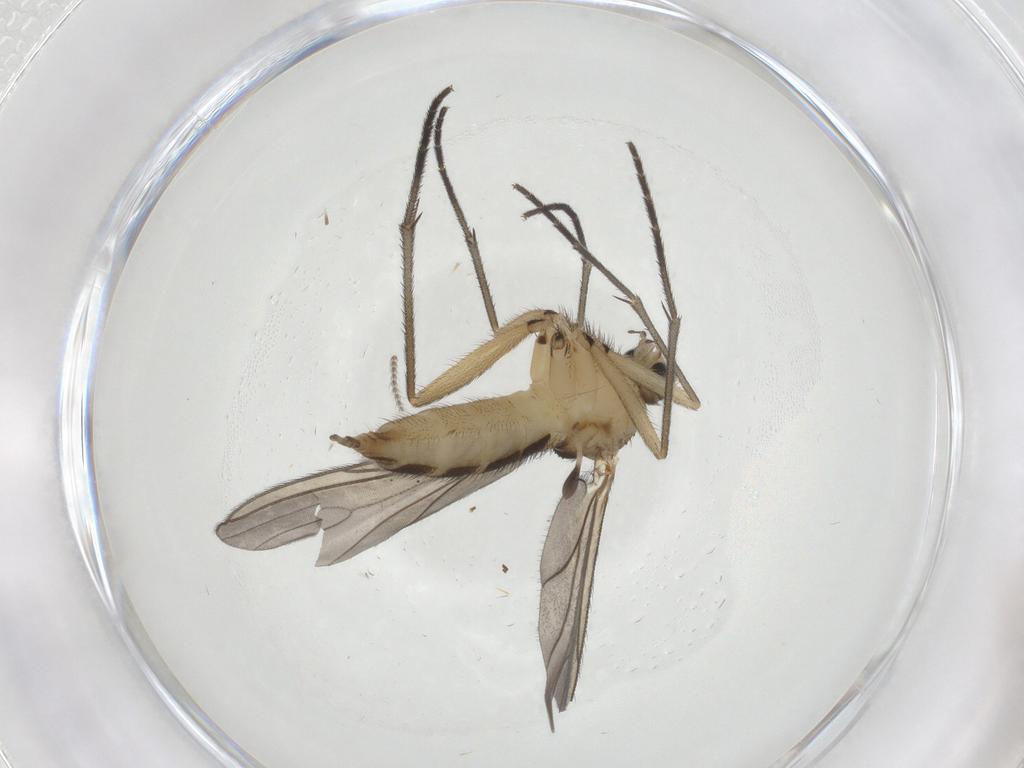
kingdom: Animalia
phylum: Arthropoda
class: Insecta
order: Diptera
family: Sciaridae
